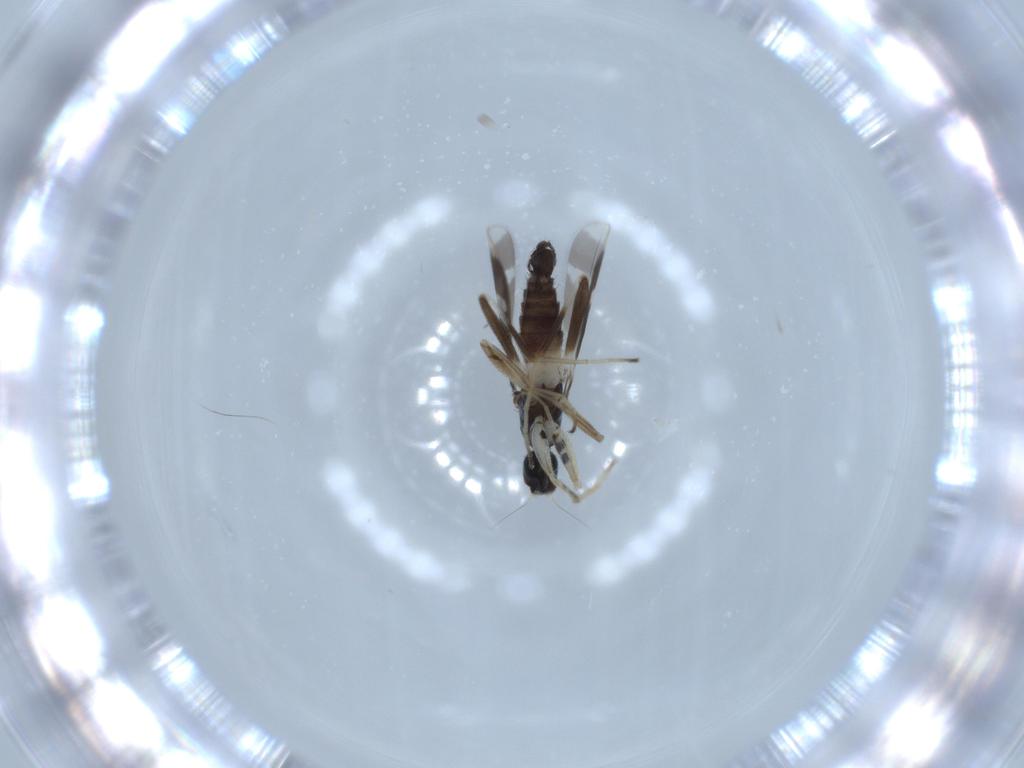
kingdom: Animalia
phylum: Arthropoda
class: Insecta
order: Diptera
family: Hybotidae
